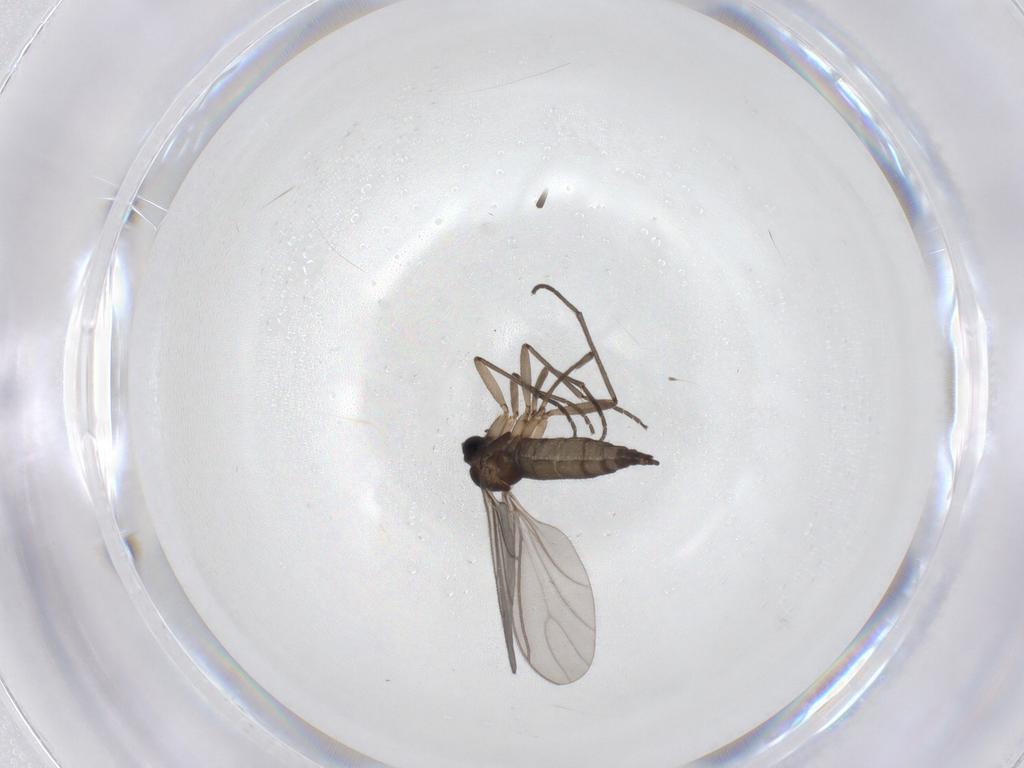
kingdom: Animalia
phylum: Arthropoda
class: Insecta
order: Diptera
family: Sciaridae
